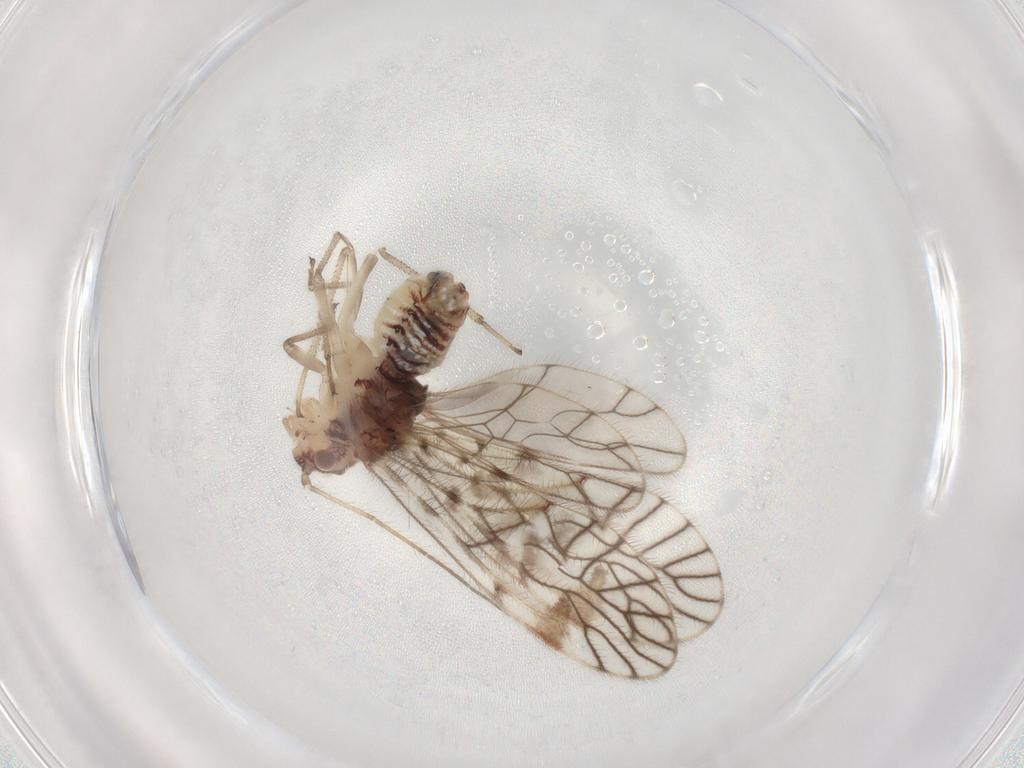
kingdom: Animalia
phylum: Arthropoda
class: Insecta
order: Psocodea
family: Amphipsocidae
